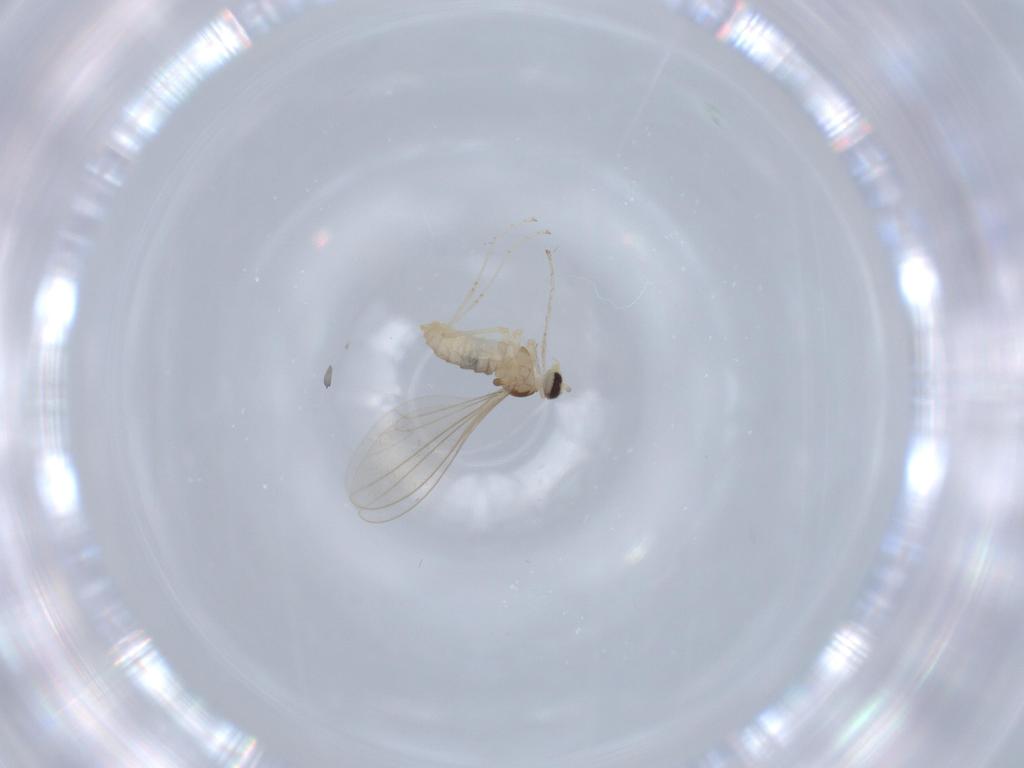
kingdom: Animalia
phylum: Arthropoda
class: Insecta
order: Diptera
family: Cecidomyiidae
